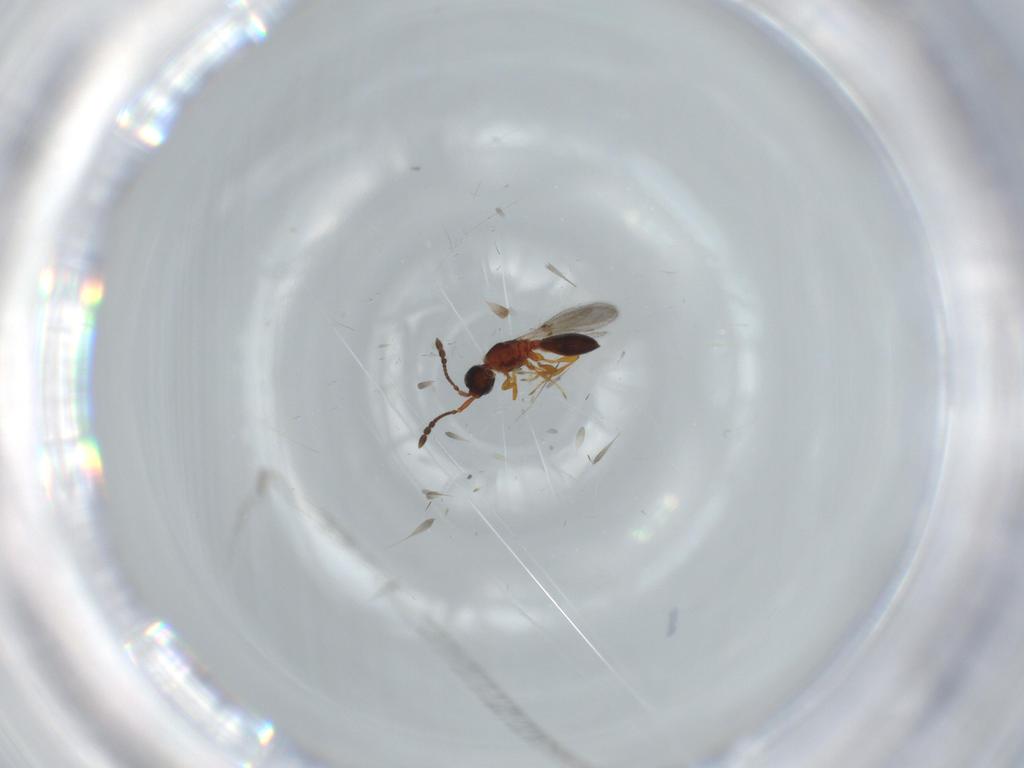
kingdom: Animalia
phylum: Arthropoda
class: Insecta
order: Hymenoptera
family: Diapriidae
